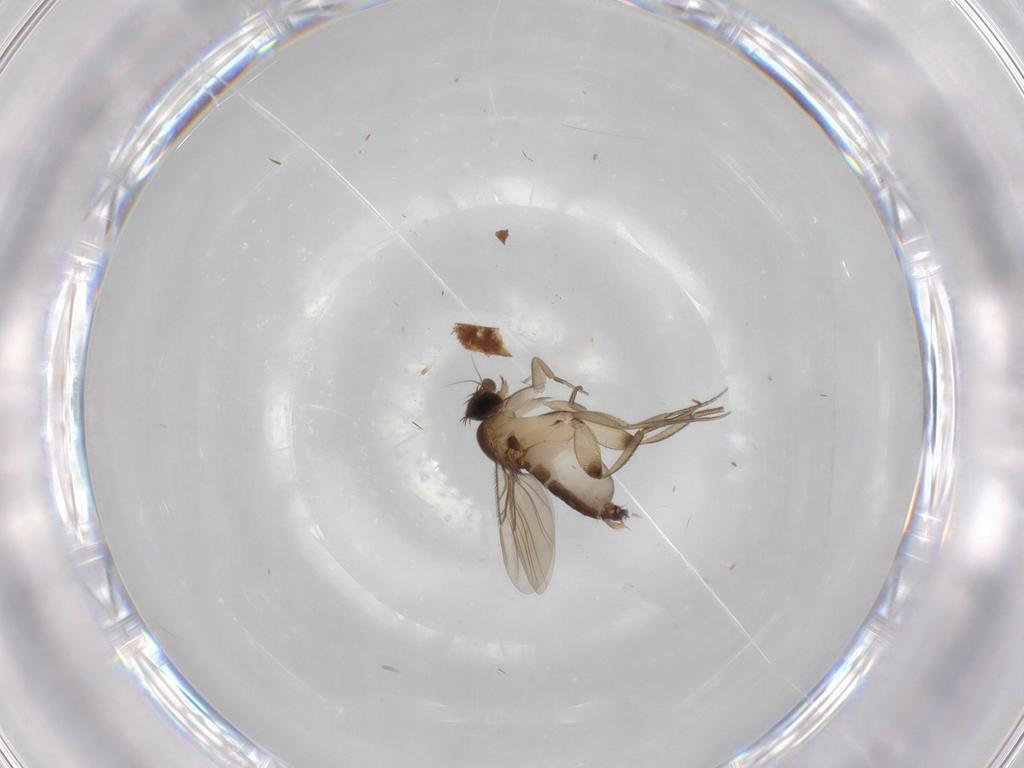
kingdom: Animalia
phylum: Arthropoda
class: Insecta
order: Diptera
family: Phoridae
